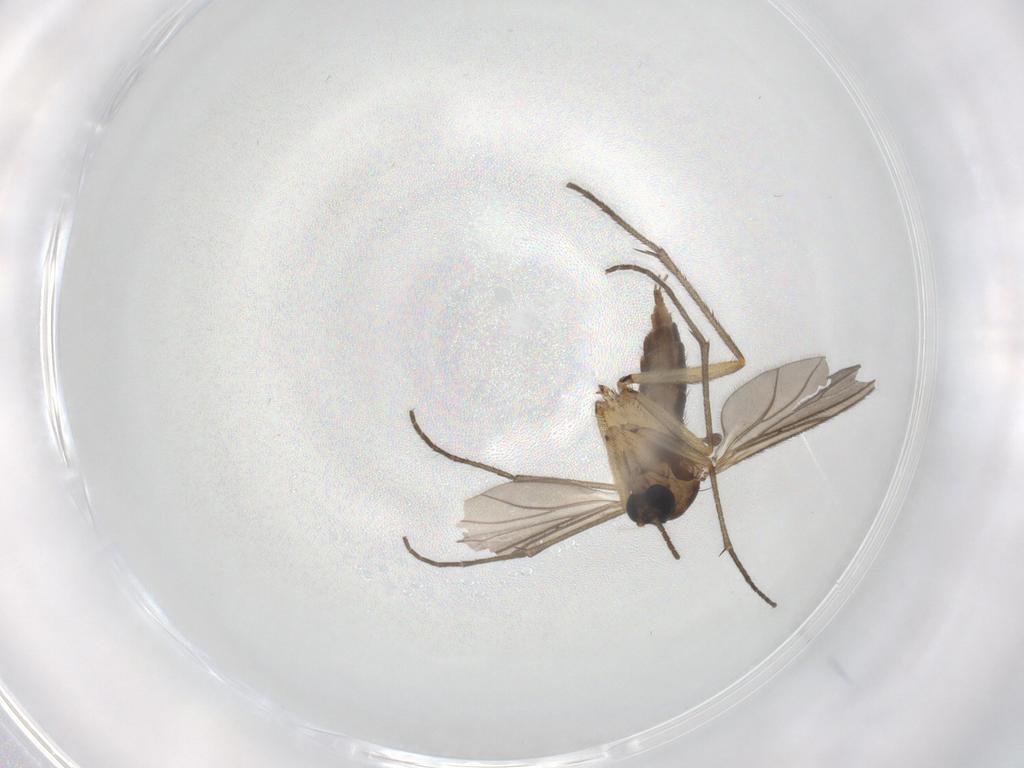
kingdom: Animalia
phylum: Arthropoda
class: Insecta
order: Diptera
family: Sciaridae
